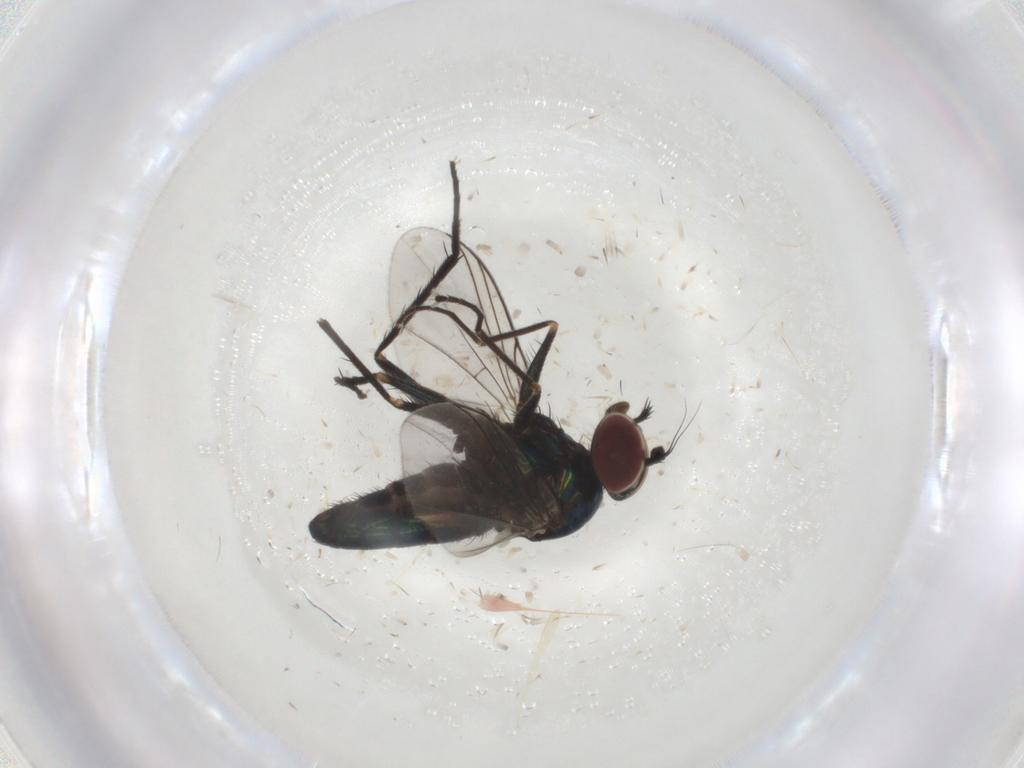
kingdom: Animalia
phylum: Arthropoda
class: Insecta
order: Diptera
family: Dolichopodidae
